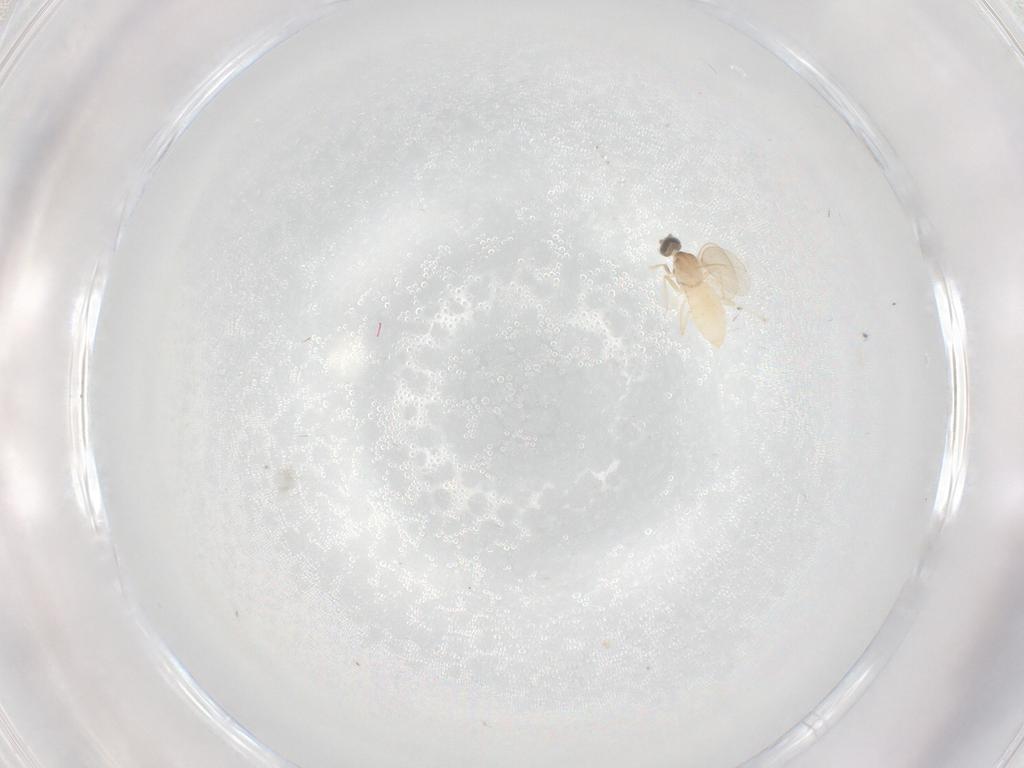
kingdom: Animalia
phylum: Arthropoda
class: Insecta
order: Diptera
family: Cecidomyiidae
